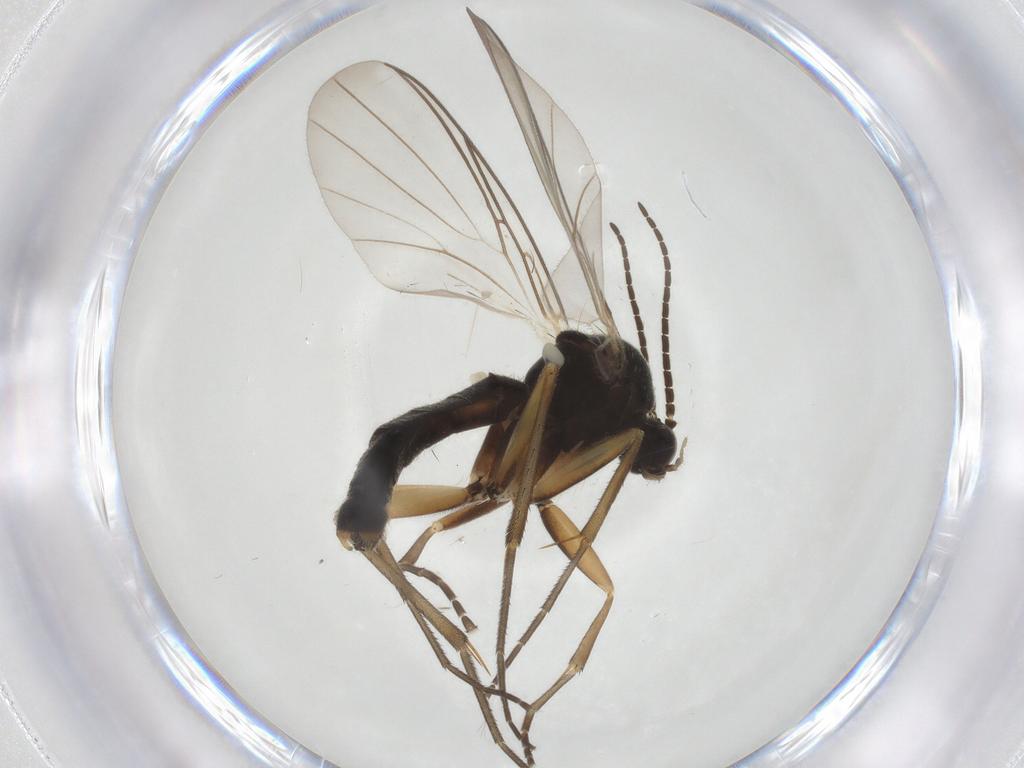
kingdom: Animalia
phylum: Arthropoda
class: Insecta
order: Diptera
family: Mycetophilidae
